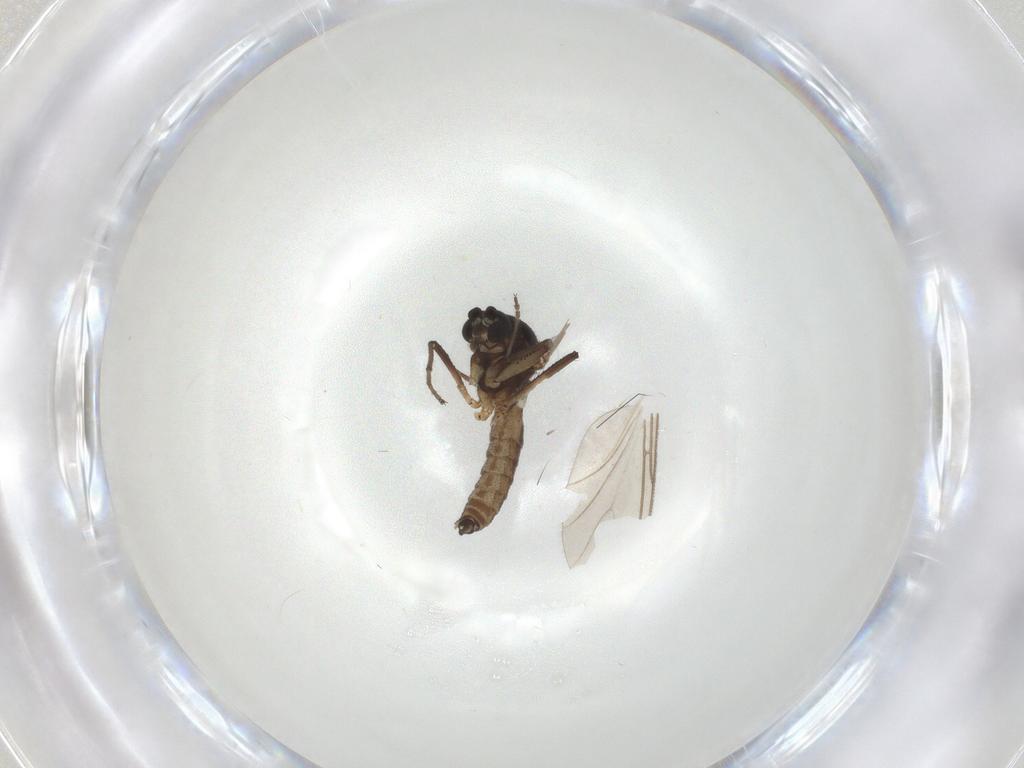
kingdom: Animalia
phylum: Arthropoda
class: Insecta
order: Diptera
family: Ceratopogonidae
